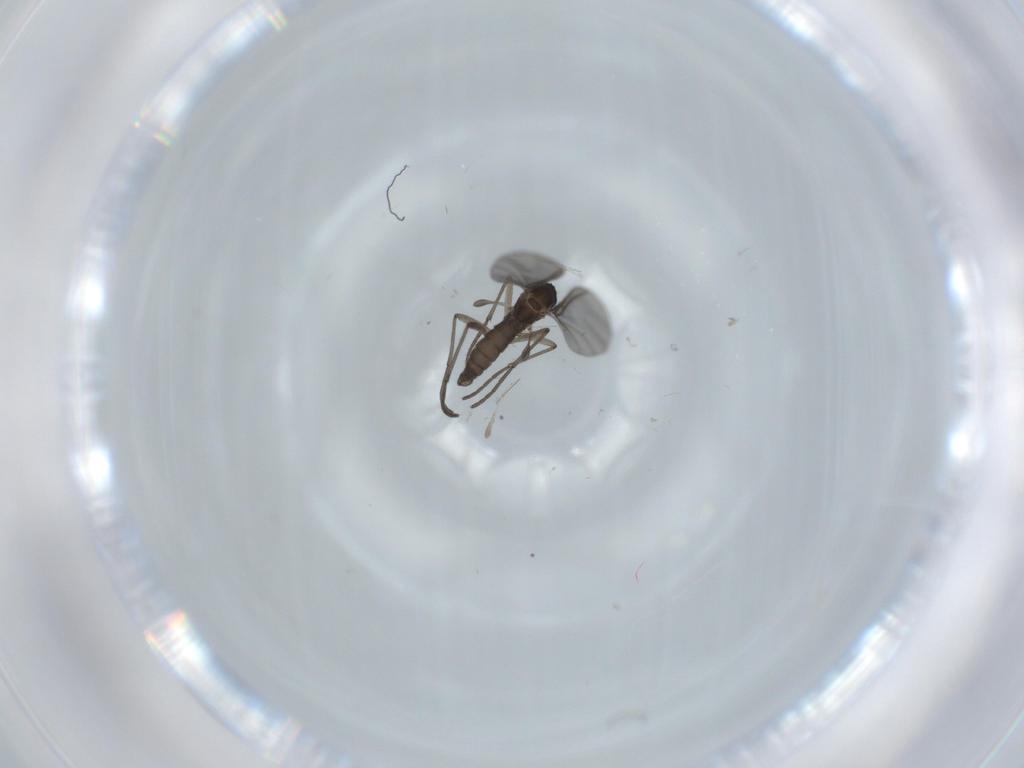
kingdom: Animalia
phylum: Arthropoda
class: Insecta
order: Diptera
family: Sciaridae
